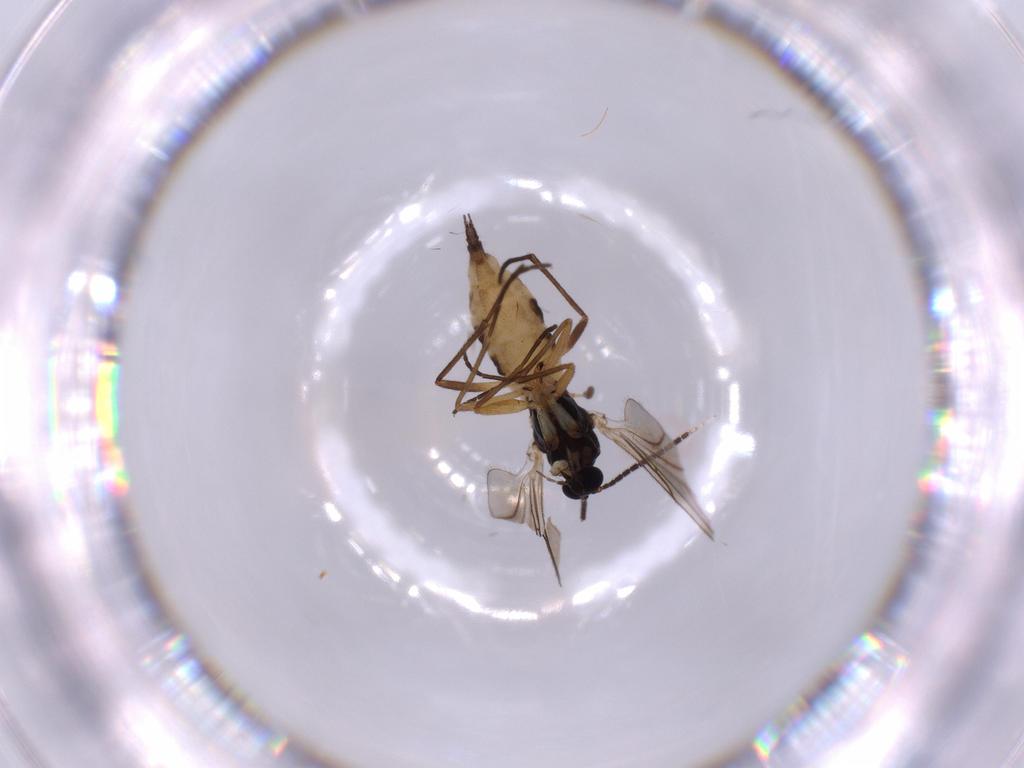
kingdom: Animalia
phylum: Arthropoda
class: Insecta
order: Diptera
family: Sciaridae
